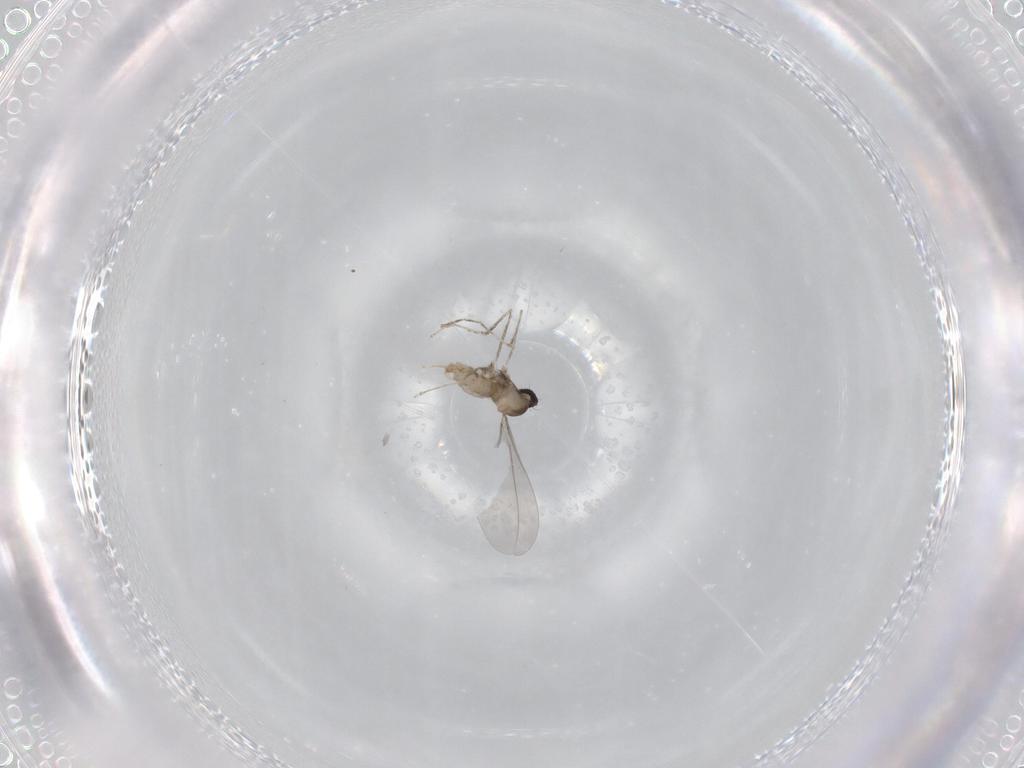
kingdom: Animalia
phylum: Arthropoda
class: Insecta
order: Diptera
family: Cecidomyiidae
